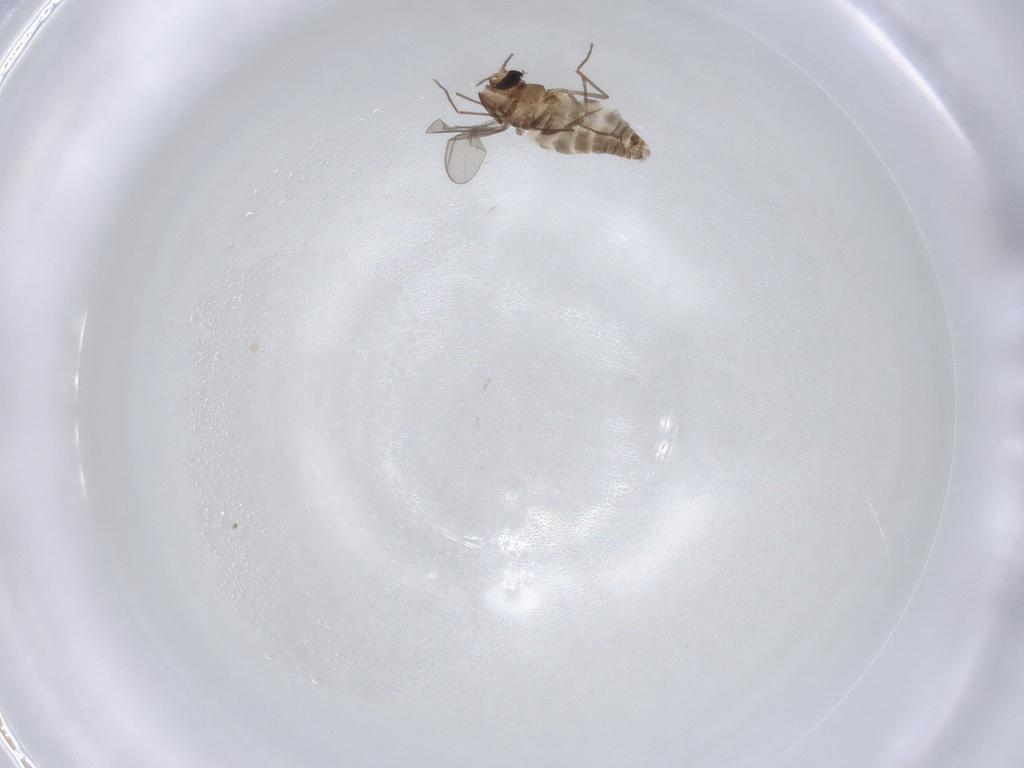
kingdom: Animalia
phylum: Arthropoda
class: Insecta
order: Diptera
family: Chironomidae
